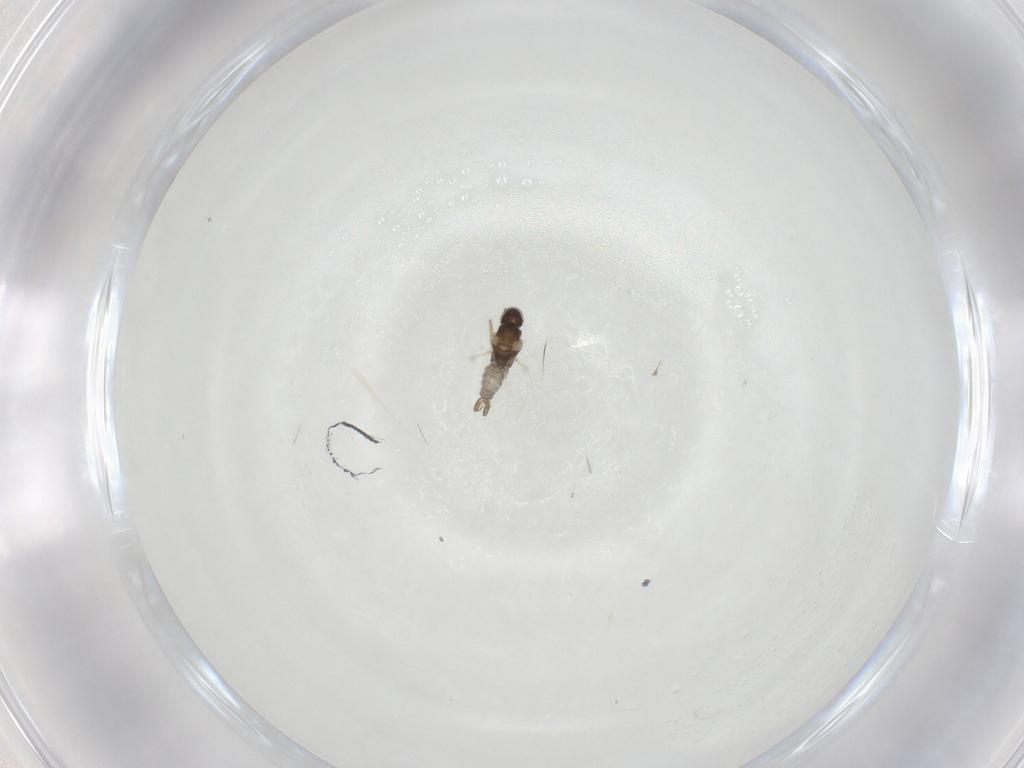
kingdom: Animalia
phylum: Arthropoda
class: Insecta
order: Diptera
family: Cecidomyiidae
